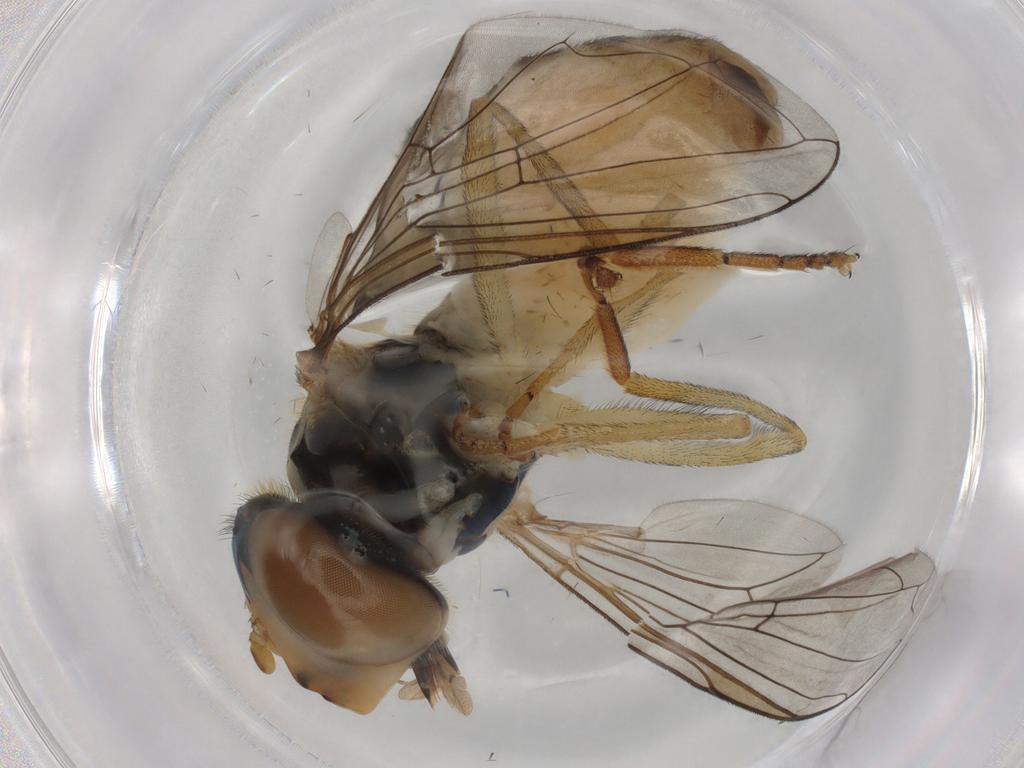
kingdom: Animalia
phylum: Arthropoda
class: Insecta
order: Diptera
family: Syrphidae
